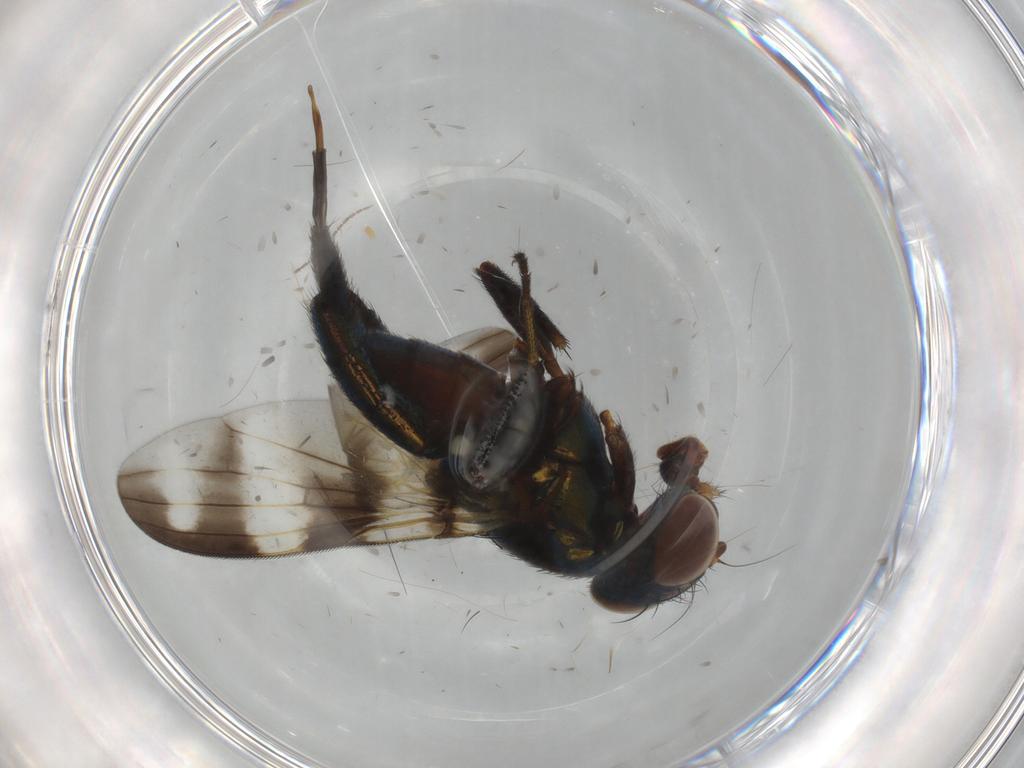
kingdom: Animalia
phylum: Arthropoda
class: Insecta
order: Diptera
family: Ulidiidae
